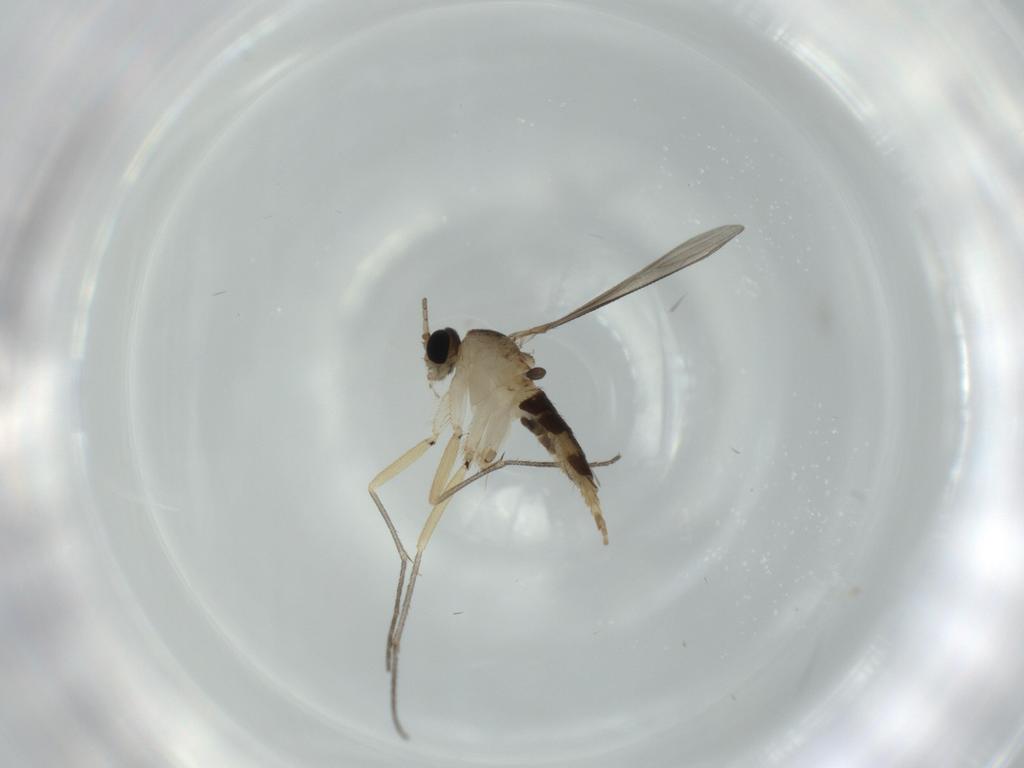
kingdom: Animalia
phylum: Arthropoda
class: Insecta
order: Diptera
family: Sciaridae
